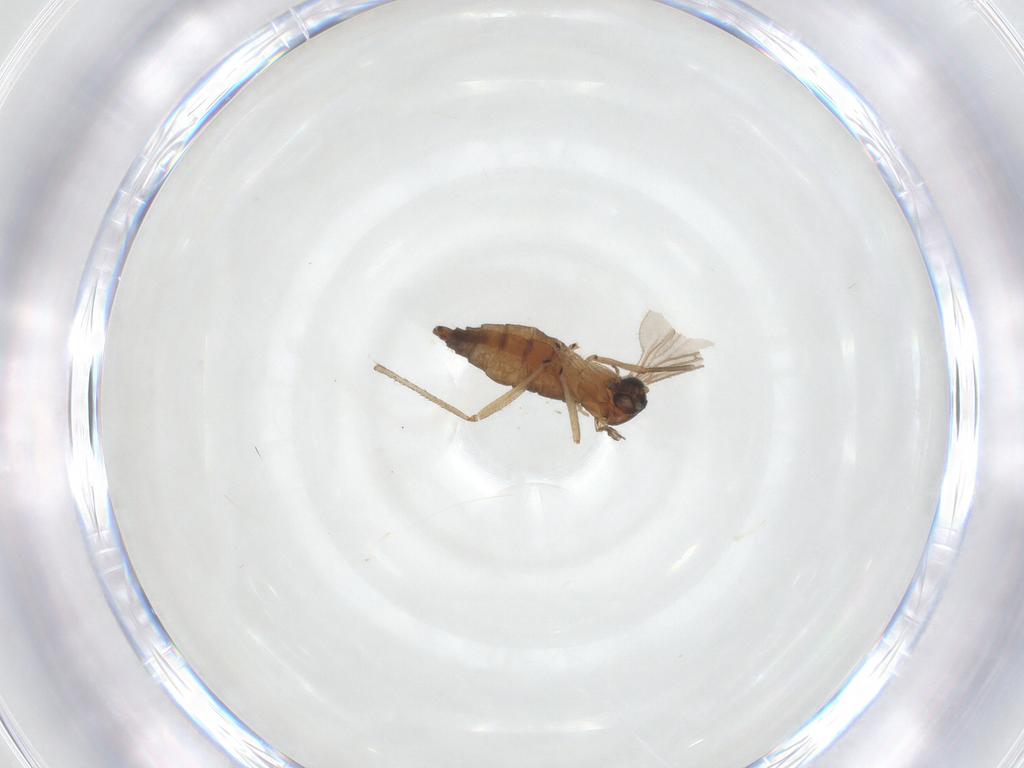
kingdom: Animalia
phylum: Arthropoda
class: Insecta
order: Diptera
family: Sciaridae
